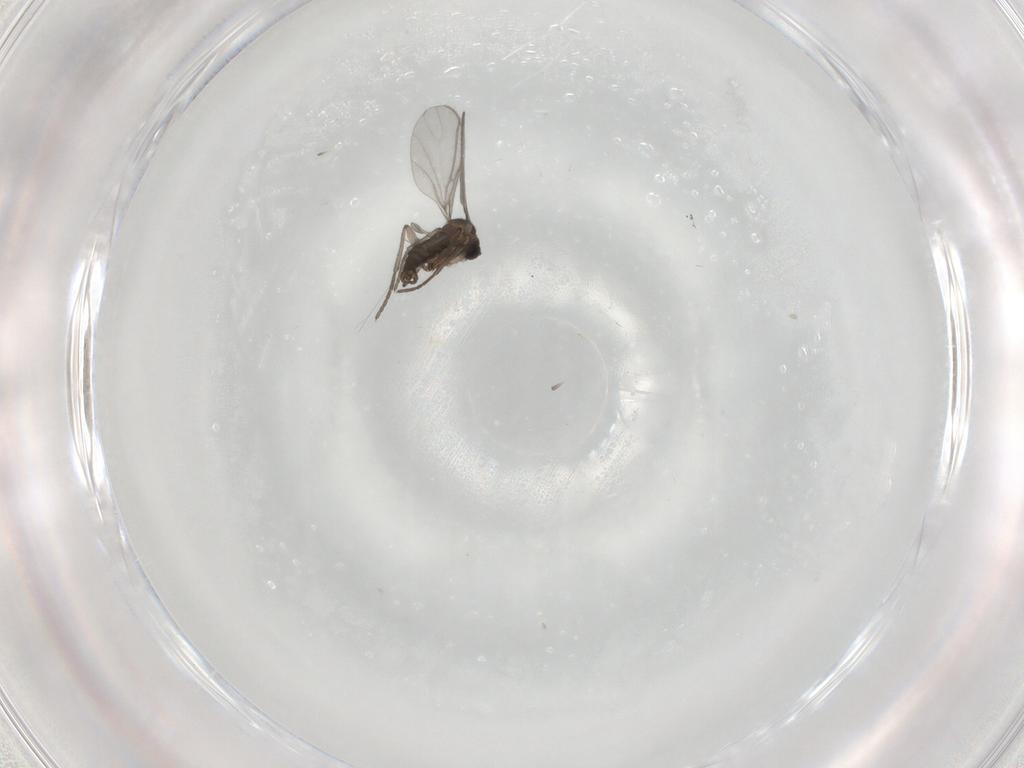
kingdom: Animalia
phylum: Arthropoda
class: Insecta
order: Diptera
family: Sciaridae
